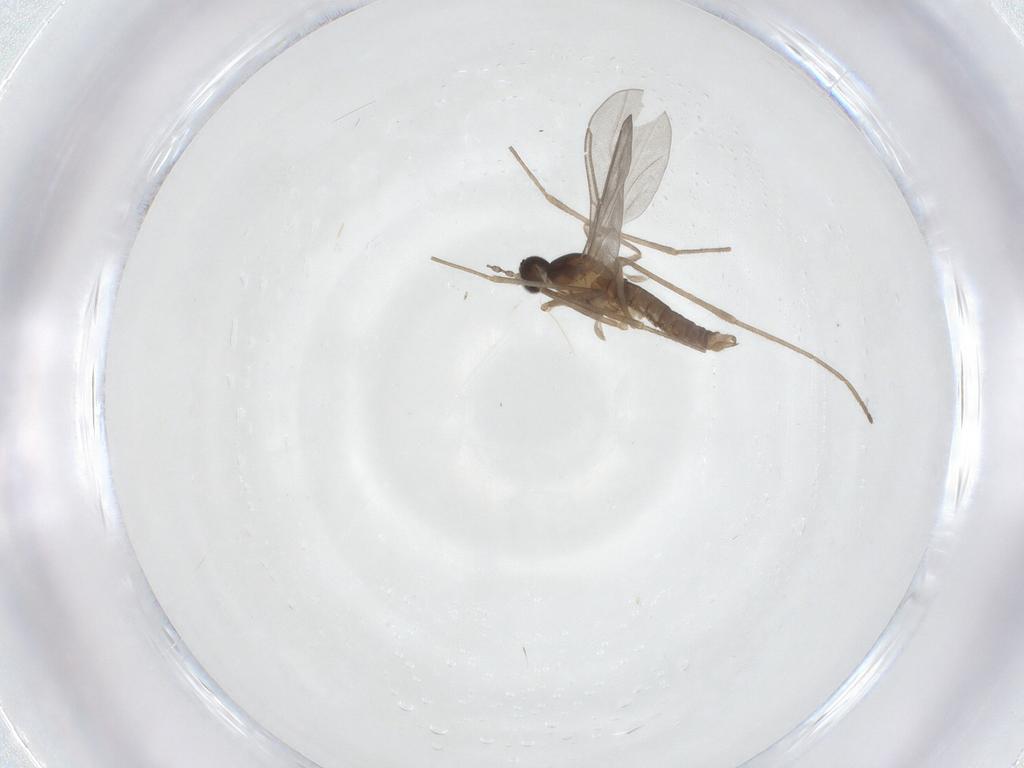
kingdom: Animalia
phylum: Arthropoda
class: Insecta
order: Diptera
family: Cecidomyiidae
